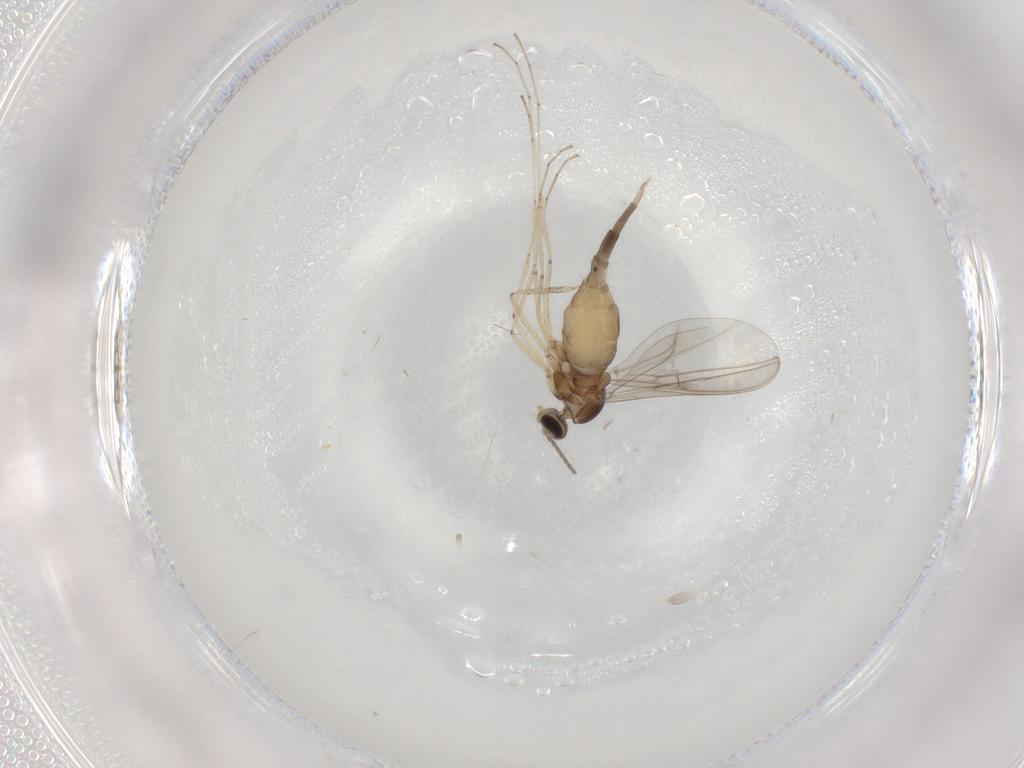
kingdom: Animalia
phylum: Arthropoda
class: Insecta
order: Diptera
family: Cecidomyiidae
